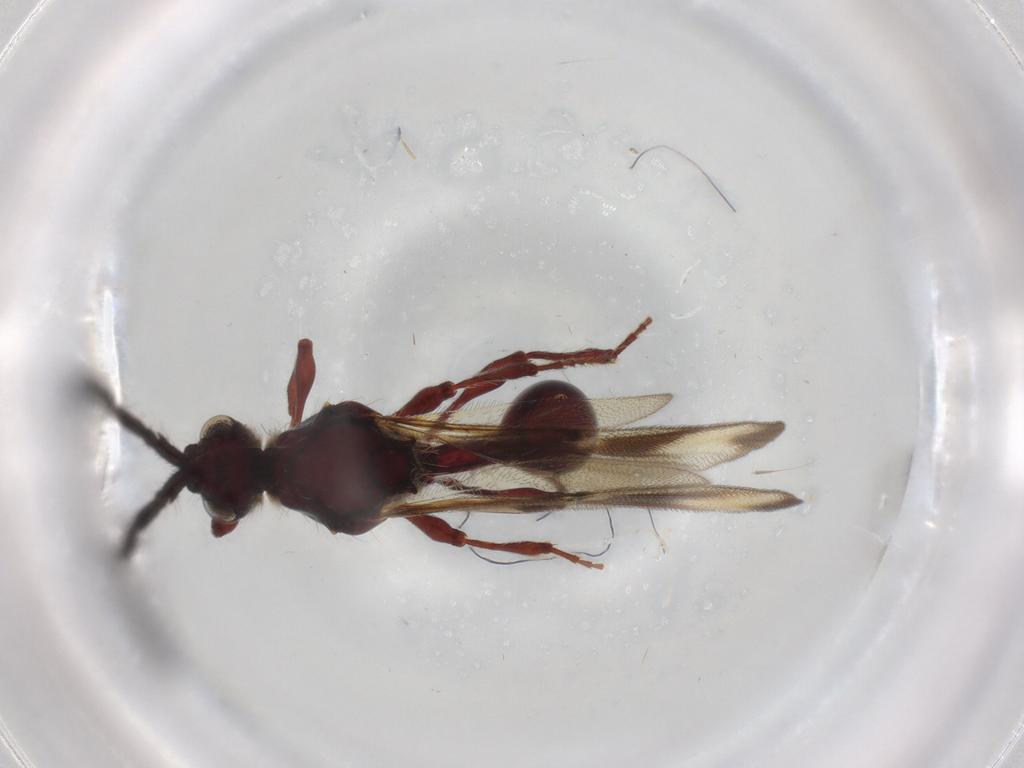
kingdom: Animalia
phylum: Arthropoda
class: Insecta
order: Hymenoptera
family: Diapriidae
